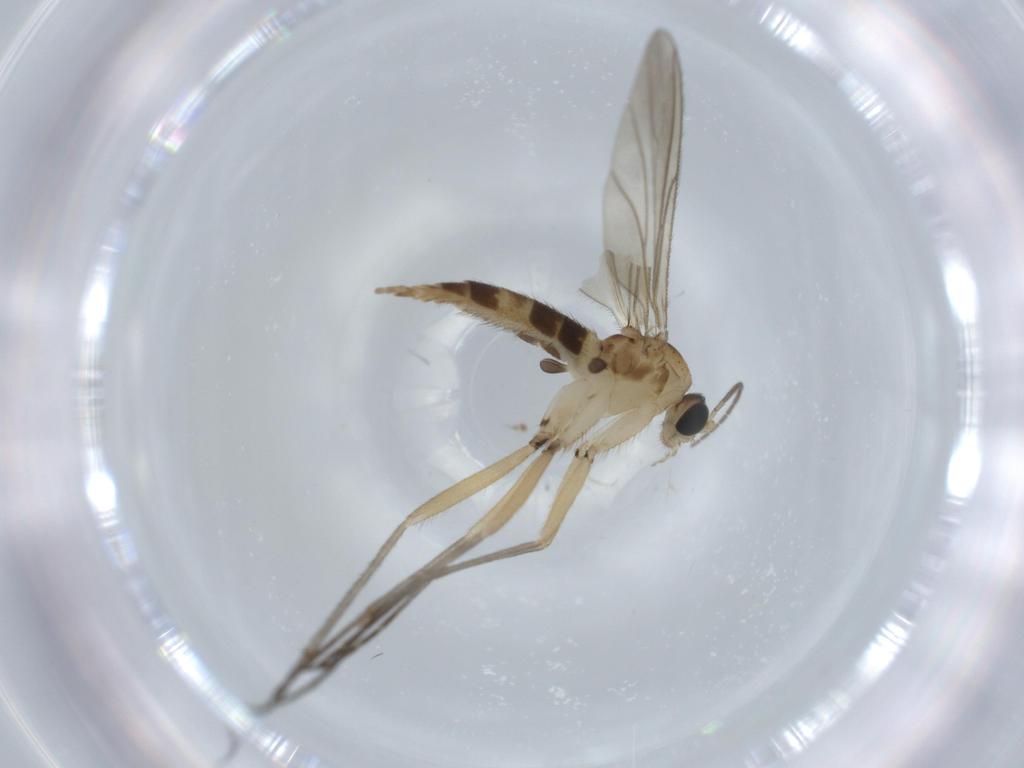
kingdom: Animalia
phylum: Arthropoda
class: Insecta
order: Diptera
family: Sciaridae
